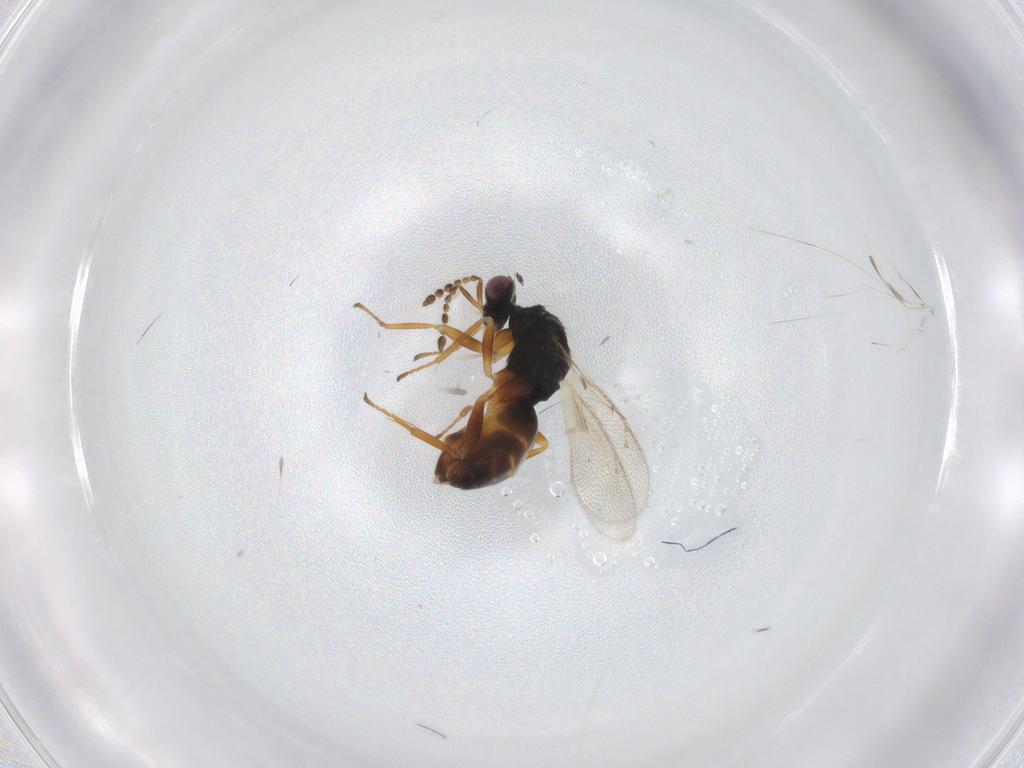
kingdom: Animalia
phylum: Arthropoda
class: Insecta
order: Hymenoptera
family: Eulophidae
